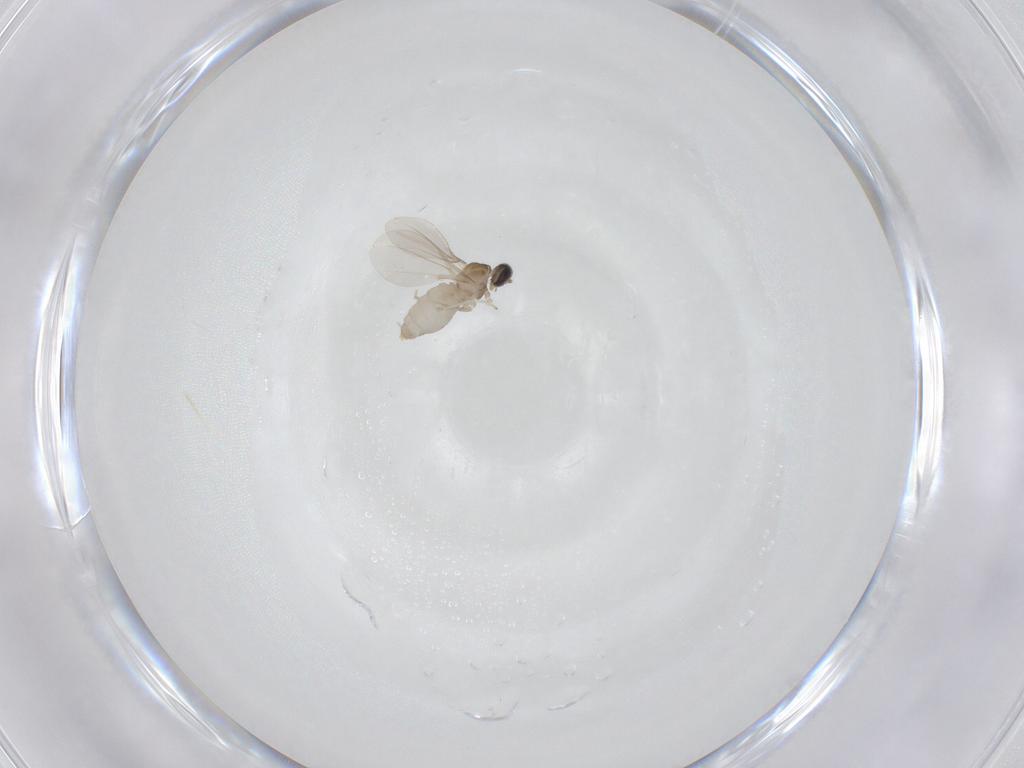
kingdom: Animalia
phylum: Arthropoda
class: Insecta
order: Diptera
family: Cecidomyiidae
